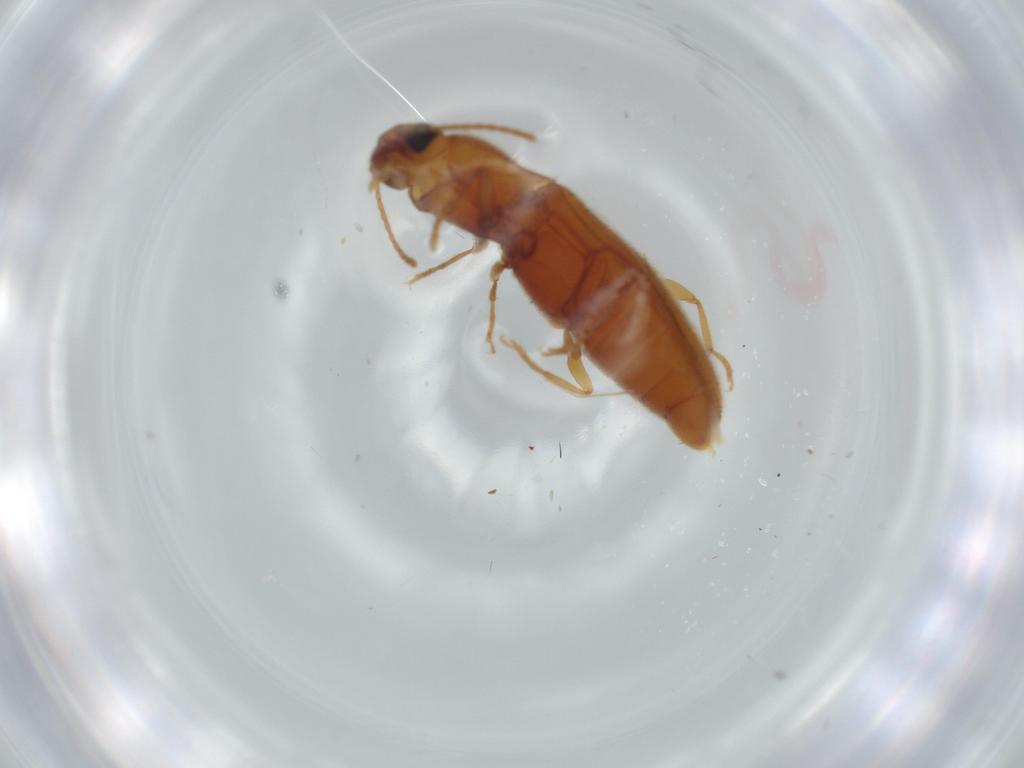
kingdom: Animalia
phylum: Arthropoda
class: Insecta
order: Coleoptera
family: Elateridae
